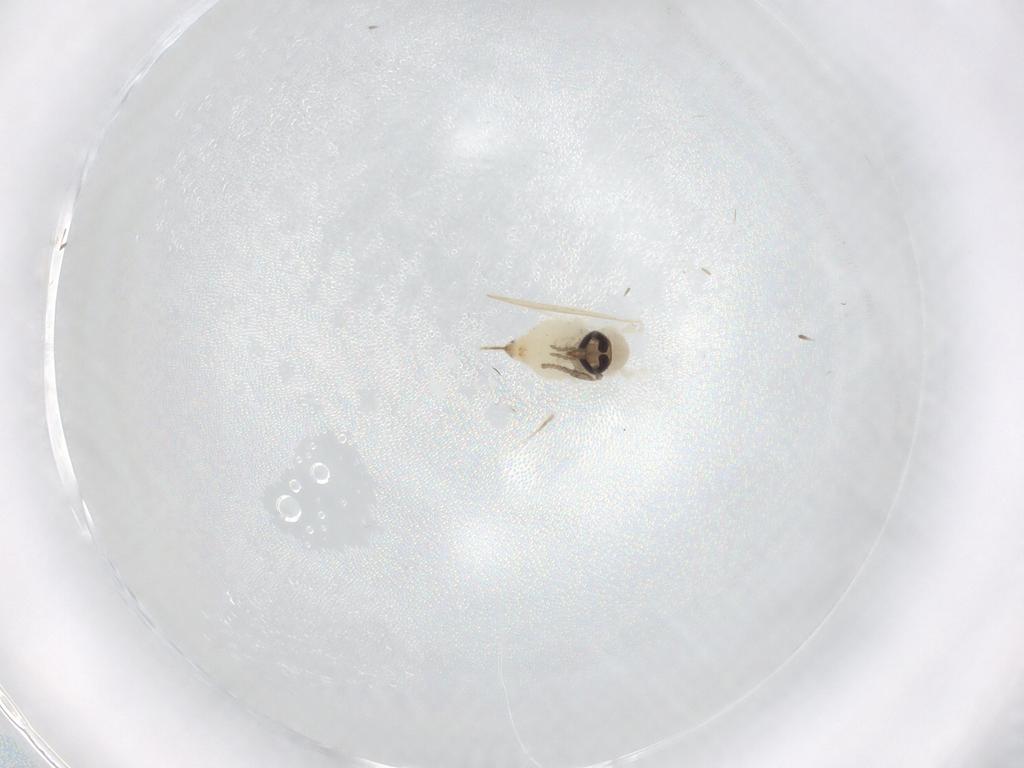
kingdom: Animalia
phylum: Arthropoda
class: Insecta
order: Diptera
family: Psychodidae
